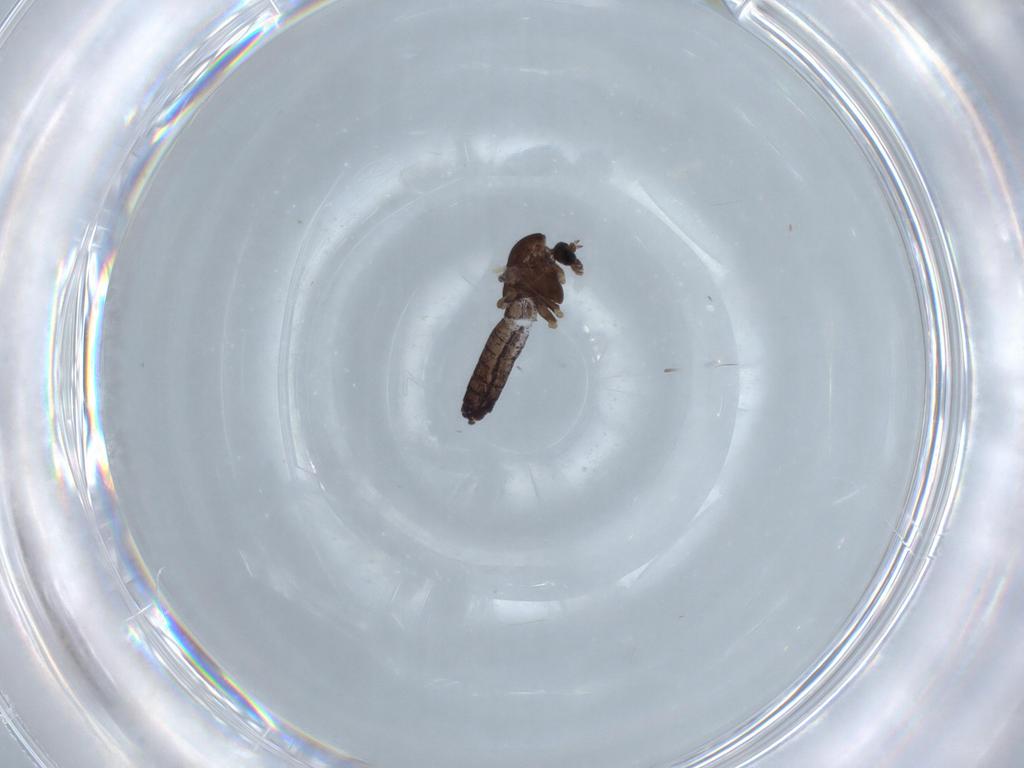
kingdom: Animalia
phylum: Arthropoda
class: Insecta
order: Diptera
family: Chironomidae
